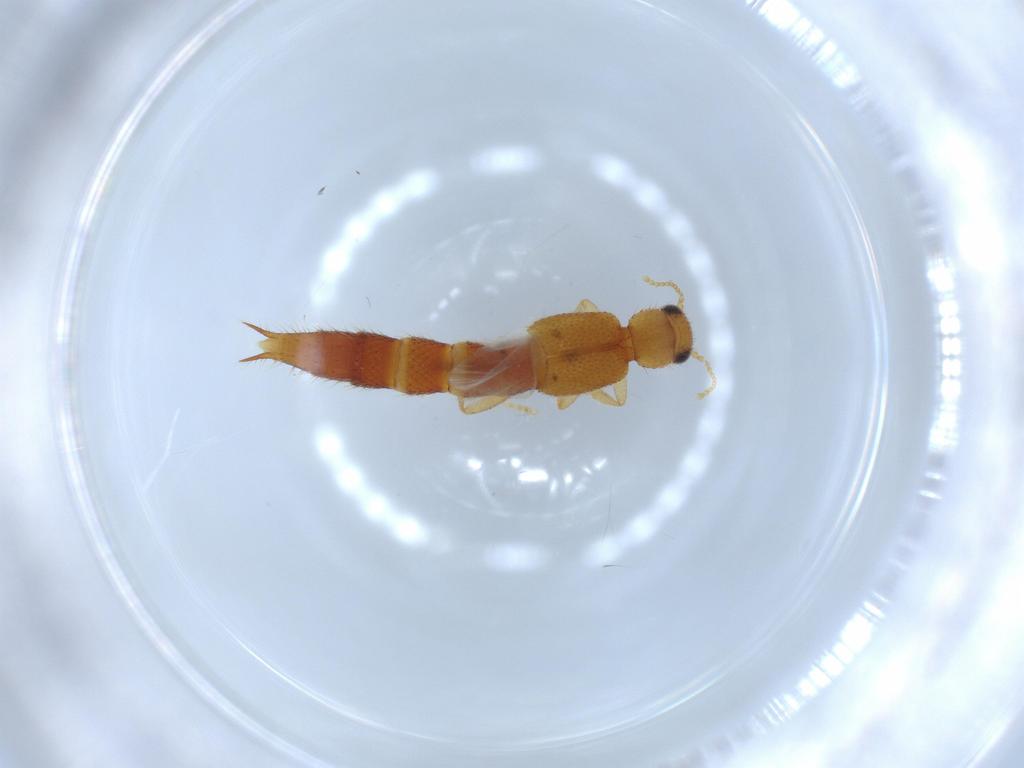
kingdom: Animalia
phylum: Arthropoda
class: Insecta
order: Coleoptera
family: Staphylinidae
